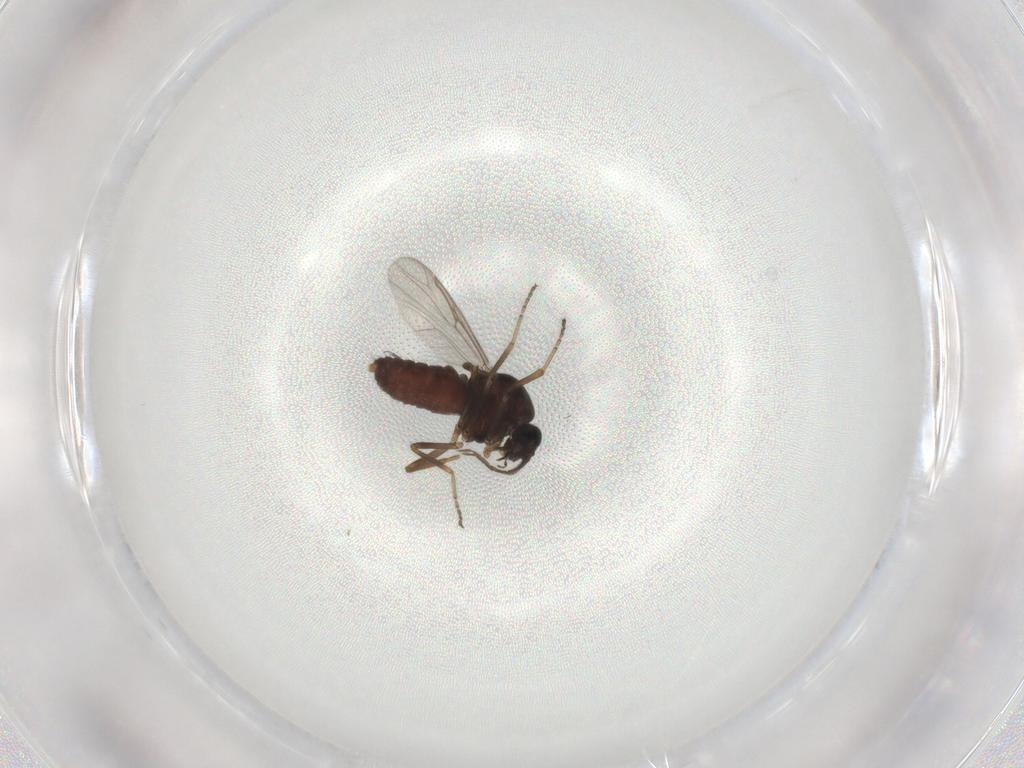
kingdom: Animalia
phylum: Arthropoda
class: Insecta
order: Diptera
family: Ceratopogonidae
